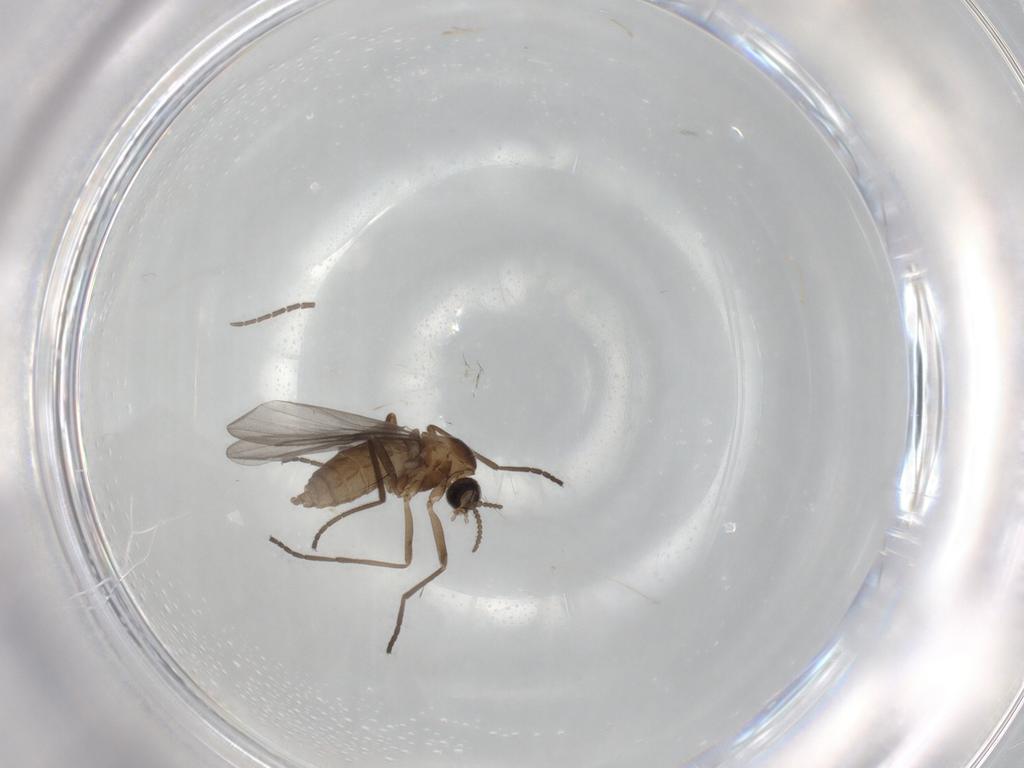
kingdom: Animalia
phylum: Arthropoda
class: Insecta
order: Diptera
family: Cecidomyiidae
